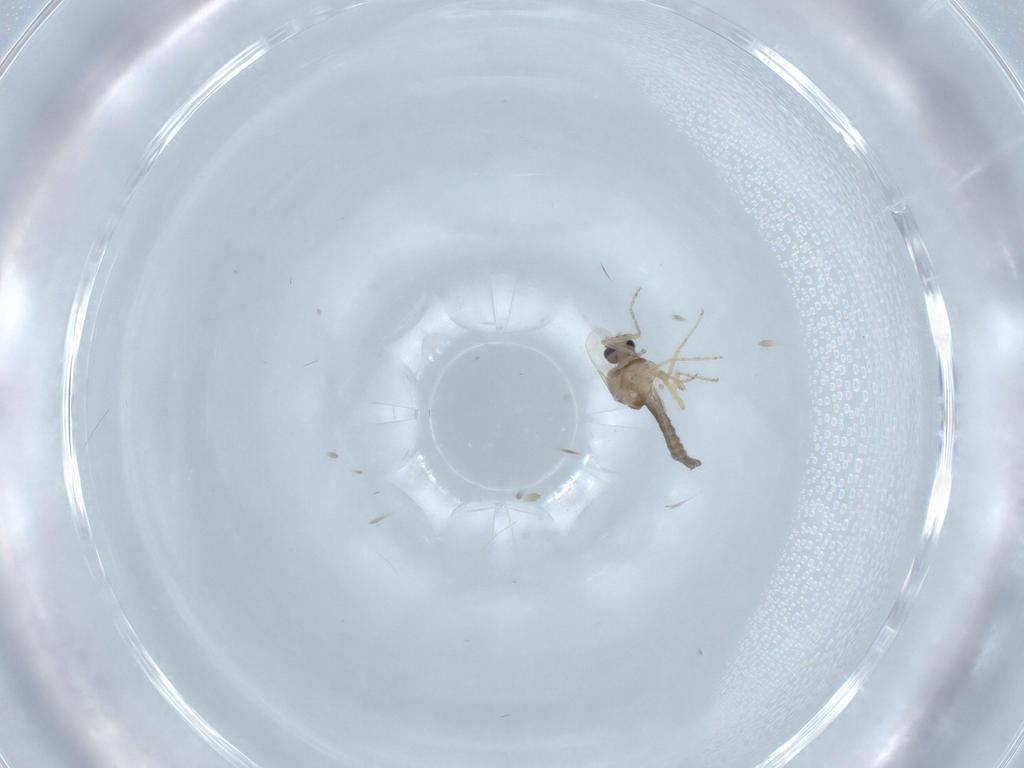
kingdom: Animalia
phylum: Arthropoda
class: Insecta
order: Diptera
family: Ceratopogonidae
